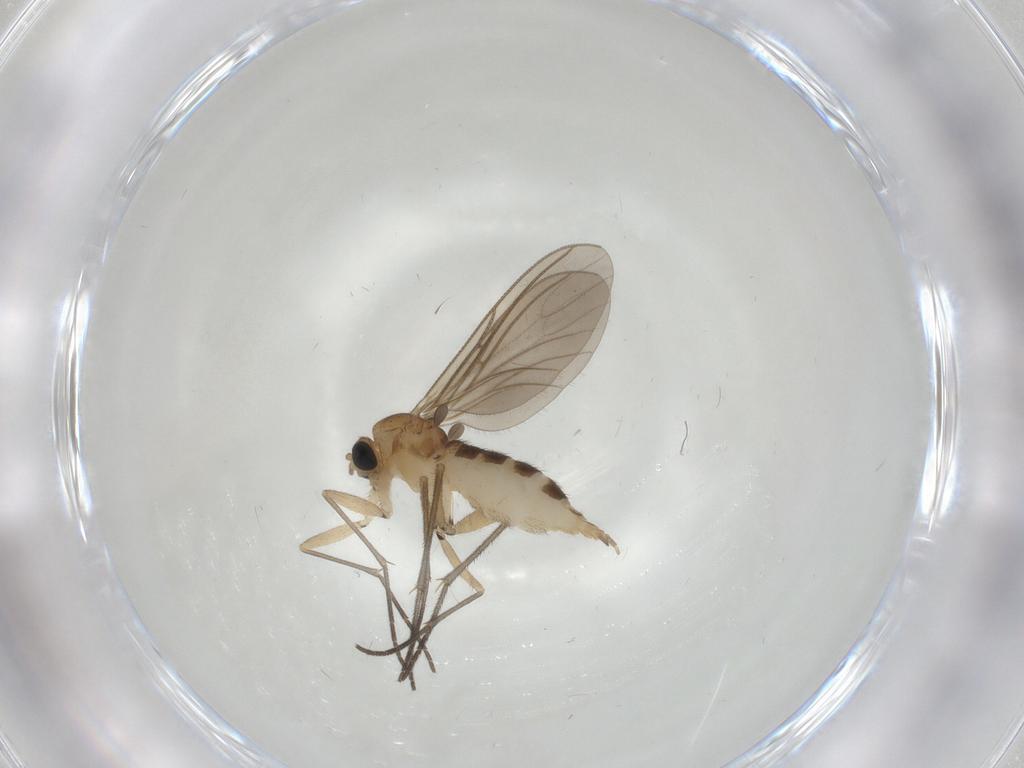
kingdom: Animalia
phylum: Arthropoda
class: Insecta
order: Diptera
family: Sciaridae
